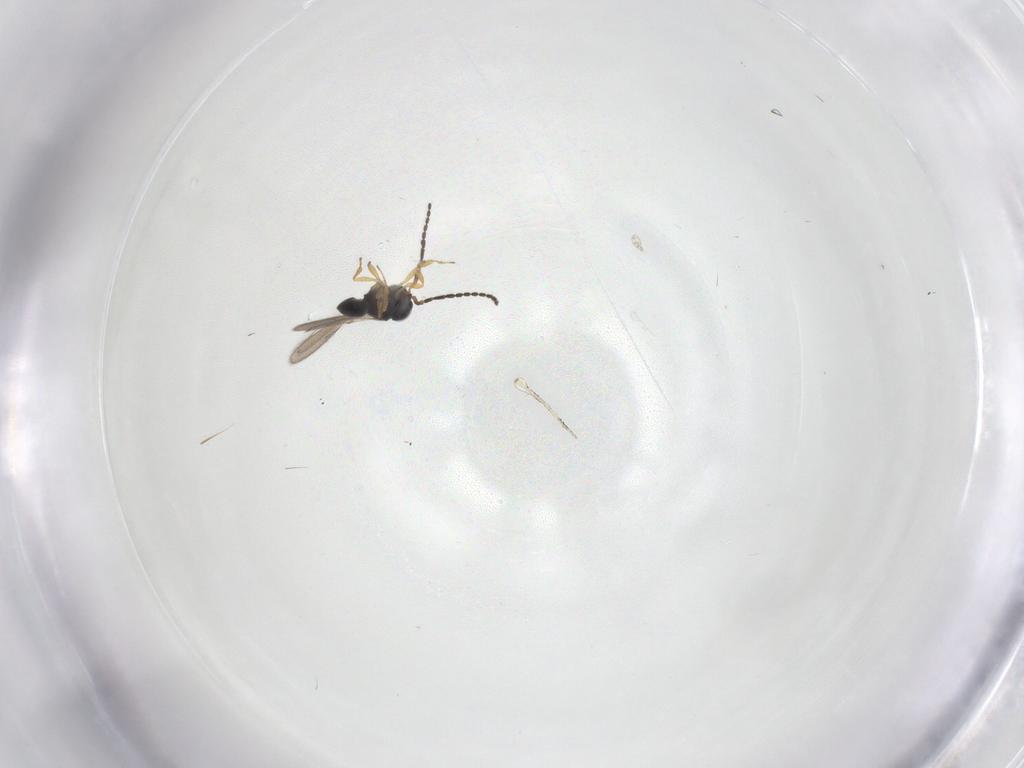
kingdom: Animalia
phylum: Arthropoda
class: Insecta
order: Hymenoptera
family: Scelionidae
